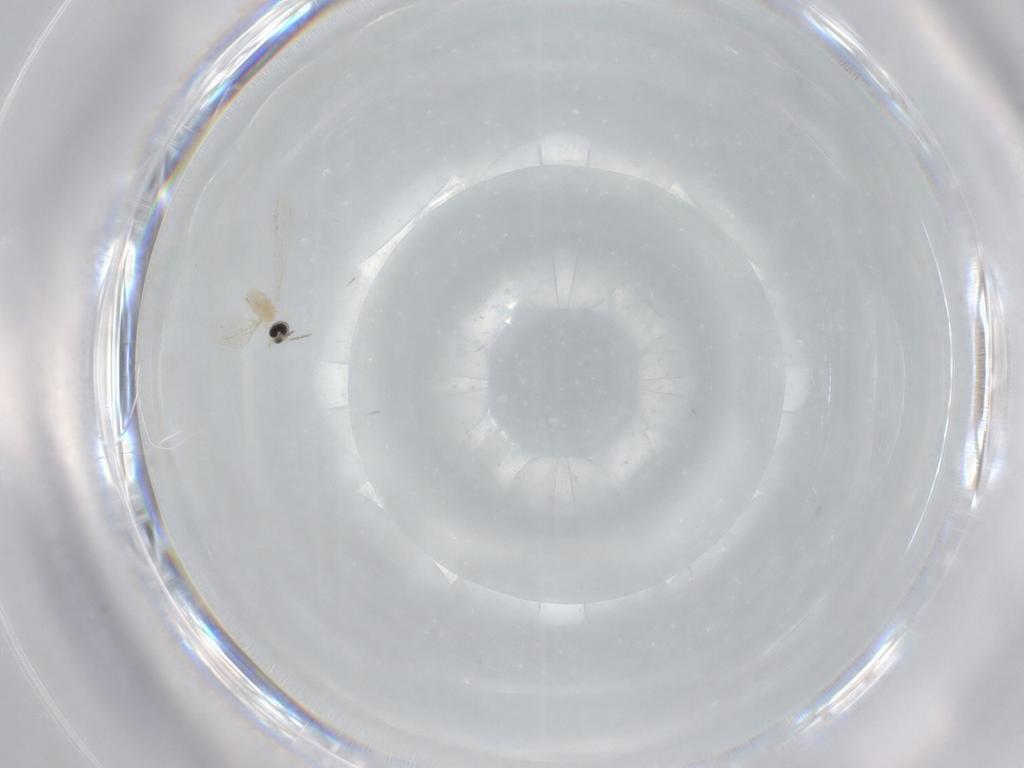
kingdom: Animalia
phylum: Arthropoda
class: Insecta
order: Diptera
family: Cecidomyiidae
